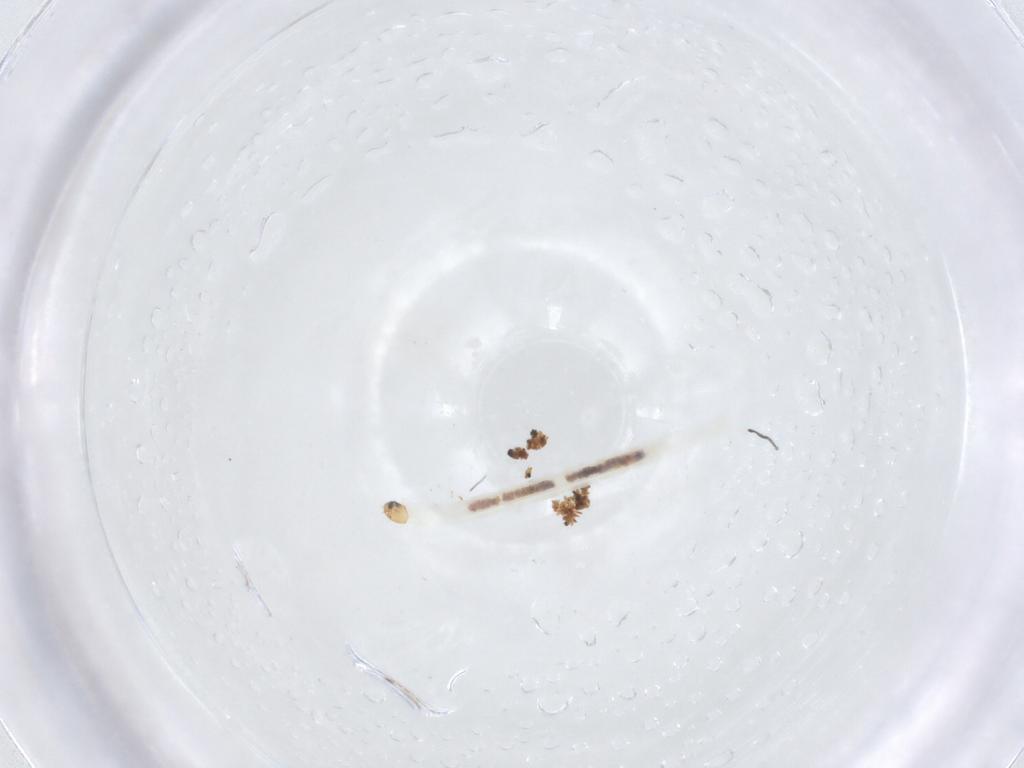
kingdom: Animalia
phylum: Arthropoda
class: Insecta
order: Diptera
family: Chironomidae
